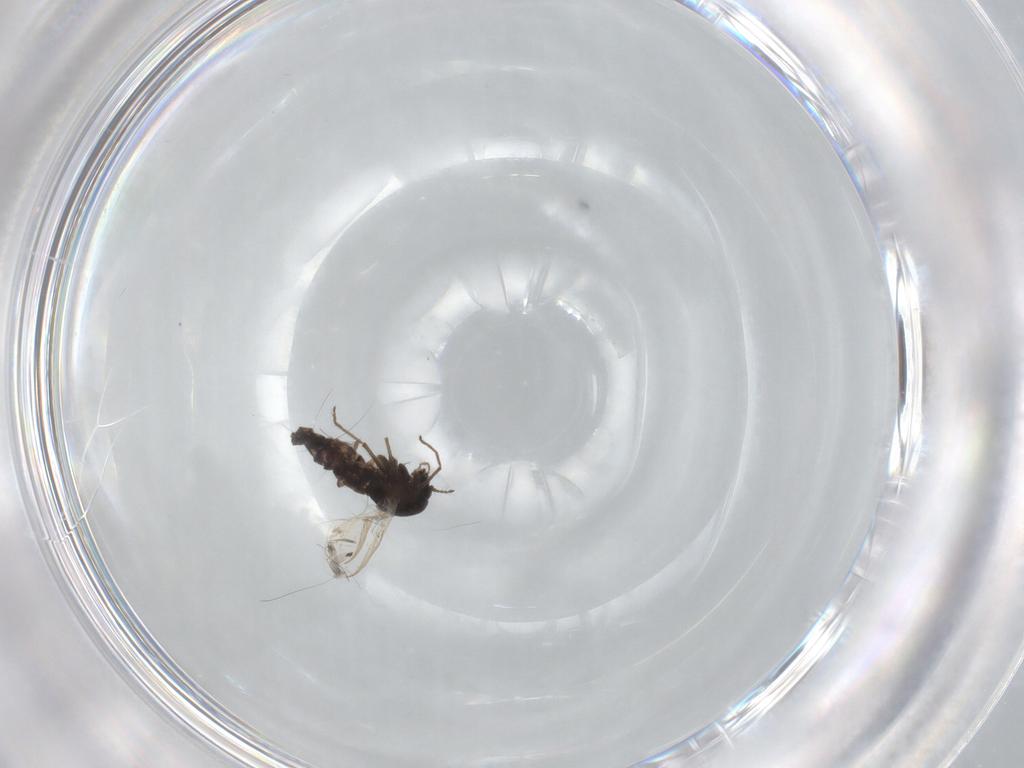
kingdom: Animalia
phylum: Arthropoda
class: Insecta
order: Diptera
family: Chironomidae
